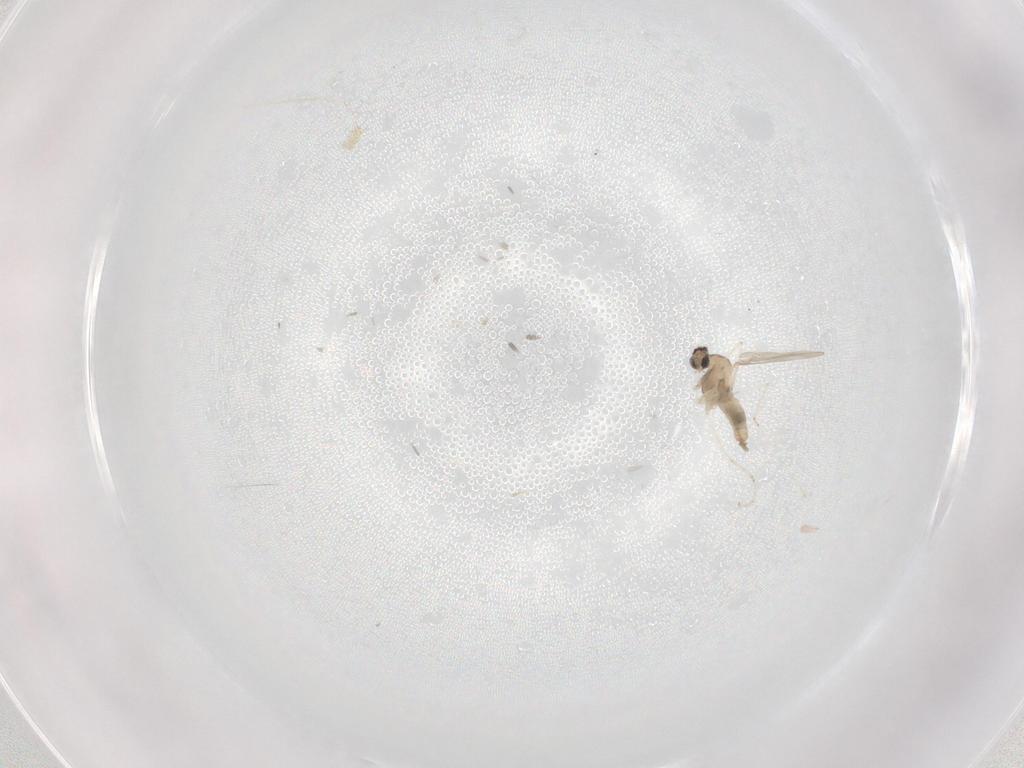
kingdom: Animalia
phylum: Arthropoda
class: Insecta
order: Diptera
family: Cecidomyiidae
